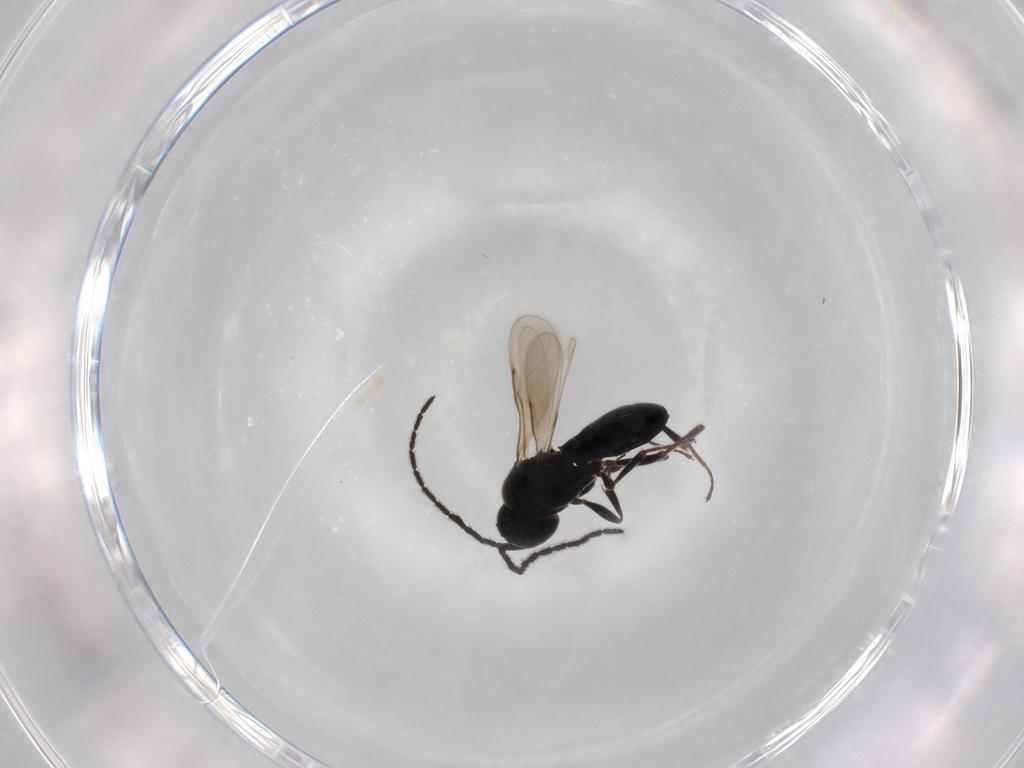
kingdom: Animalia
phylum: Arthropoda
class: Insecta
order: Hymenoptera
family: Scelionidae
